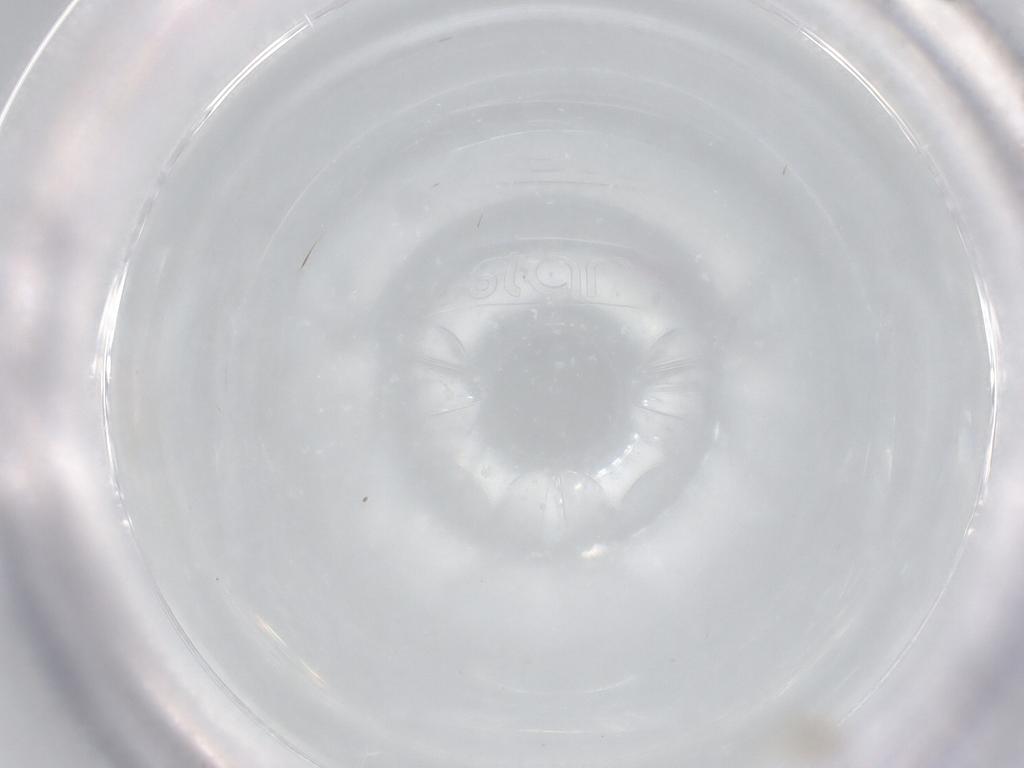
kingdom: Animalia
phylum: Arthropoda
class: Insecta
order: Diptera
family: Cecidomyiidae
